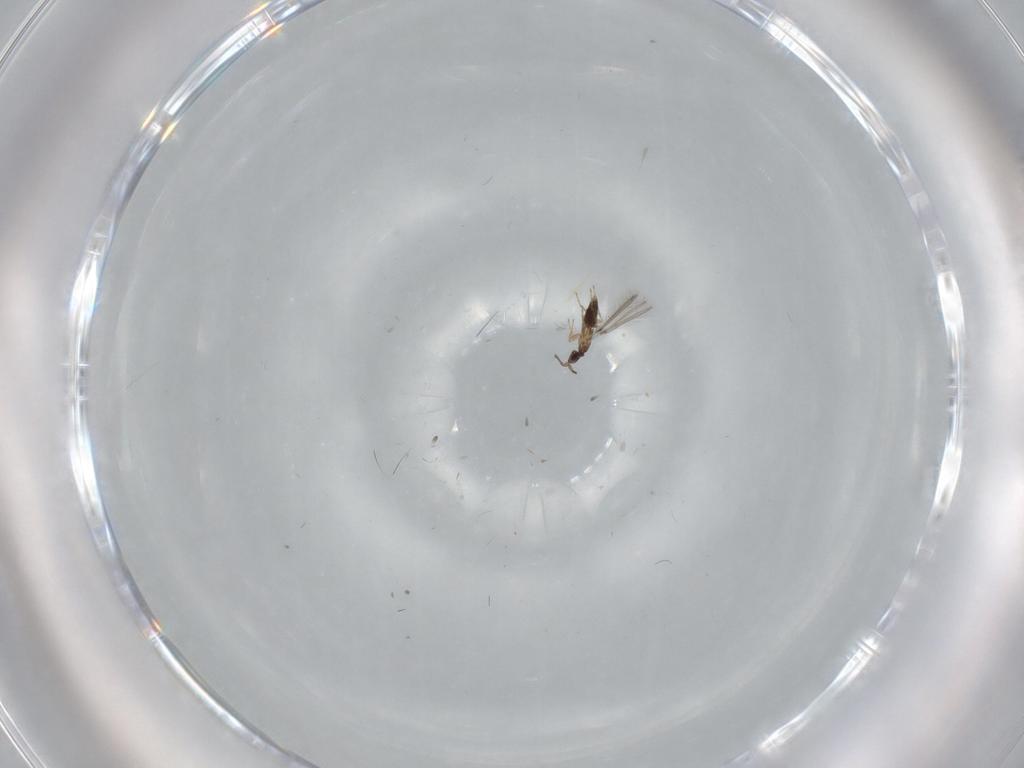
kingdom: Animalia
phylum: Arthropoda
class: Insecta
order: Hymenoptera
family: Mymaridae
